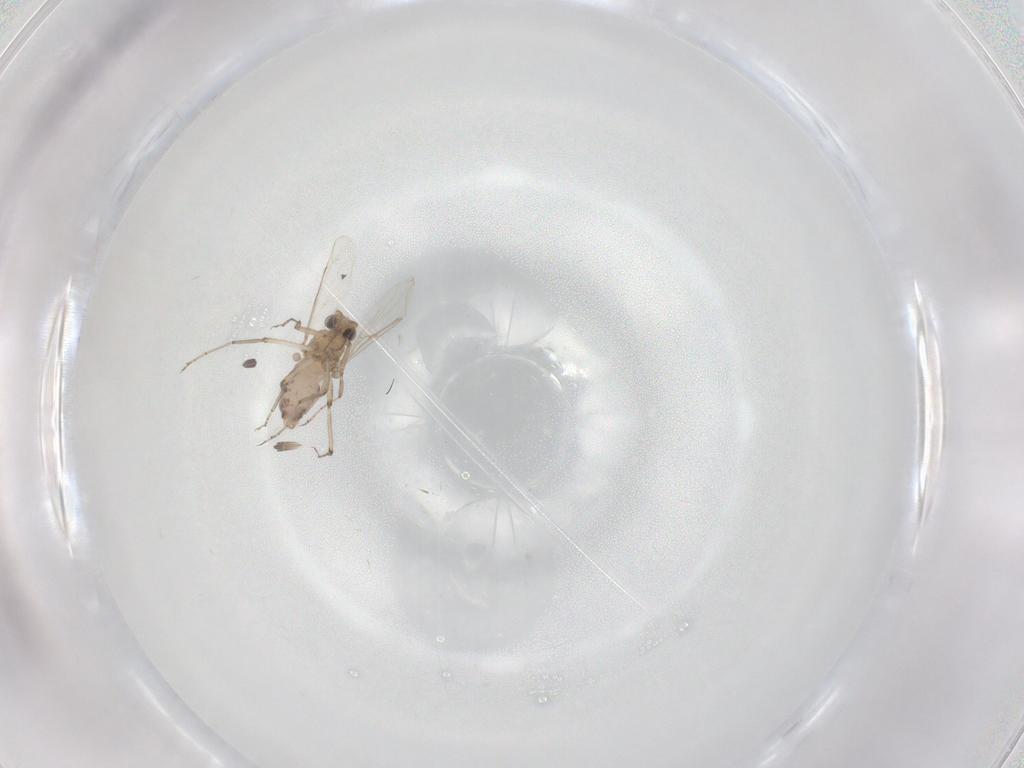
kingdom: Animalia
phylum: Arthropoda
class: Insecta
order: Diptera
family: Ceratopogonidae
